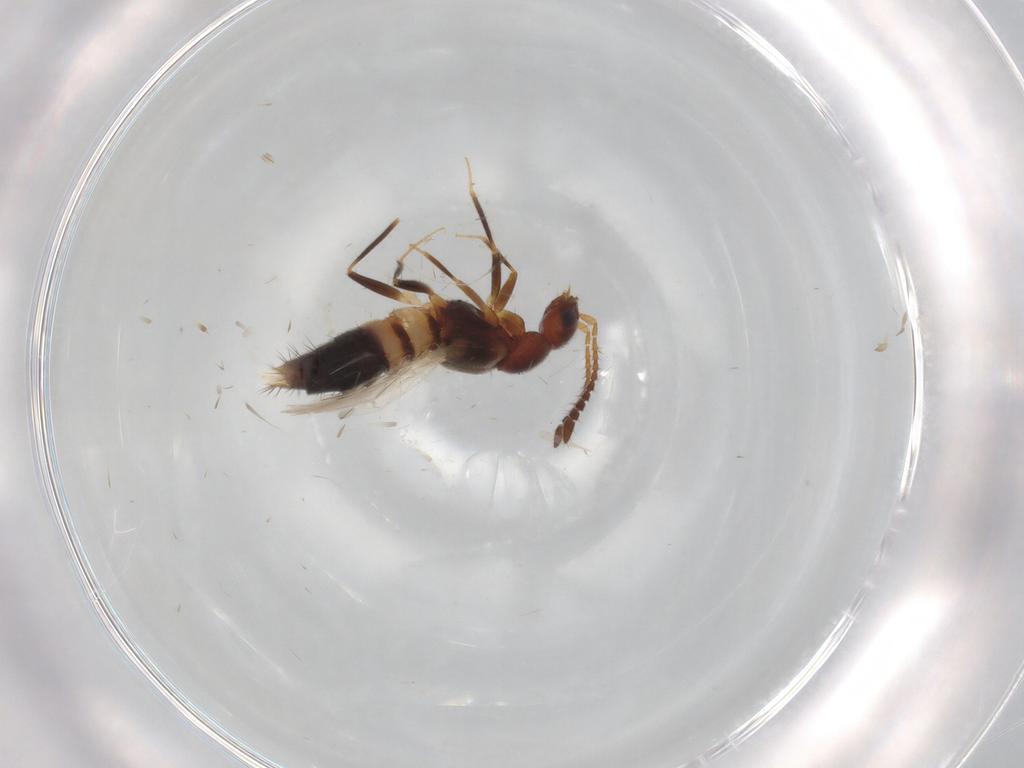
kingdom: Animalia
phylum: Arthropoda
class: Insecta
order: Coleoptera
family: Staphylinidae
